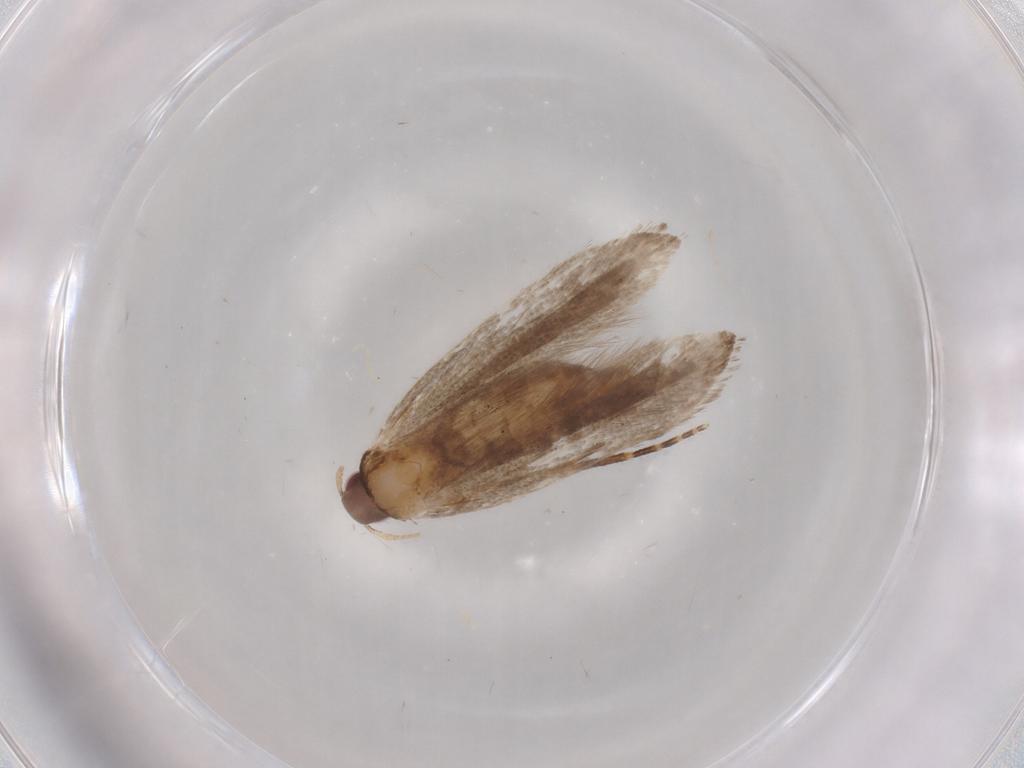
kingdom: Animalia
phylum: Arthropoda
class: Insecta
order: Lepidoptera
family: Gelechiidae
